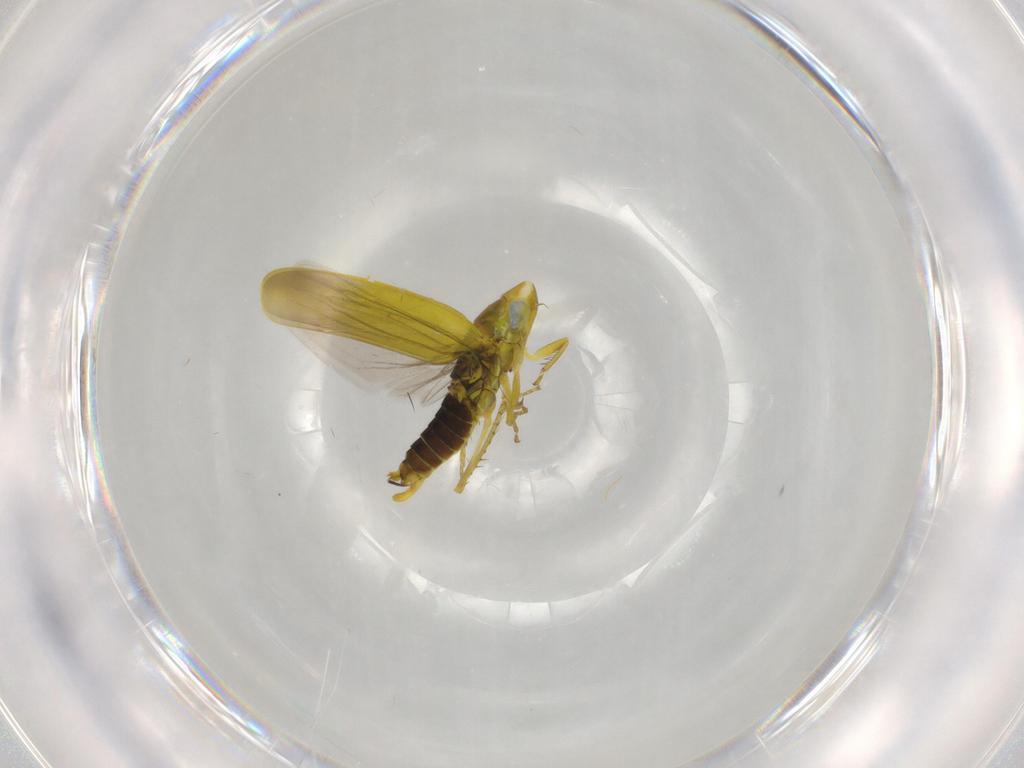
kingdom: Animalia
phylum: Arthropoda
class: Insecta
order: Hemiptera
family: Cicadellidae
